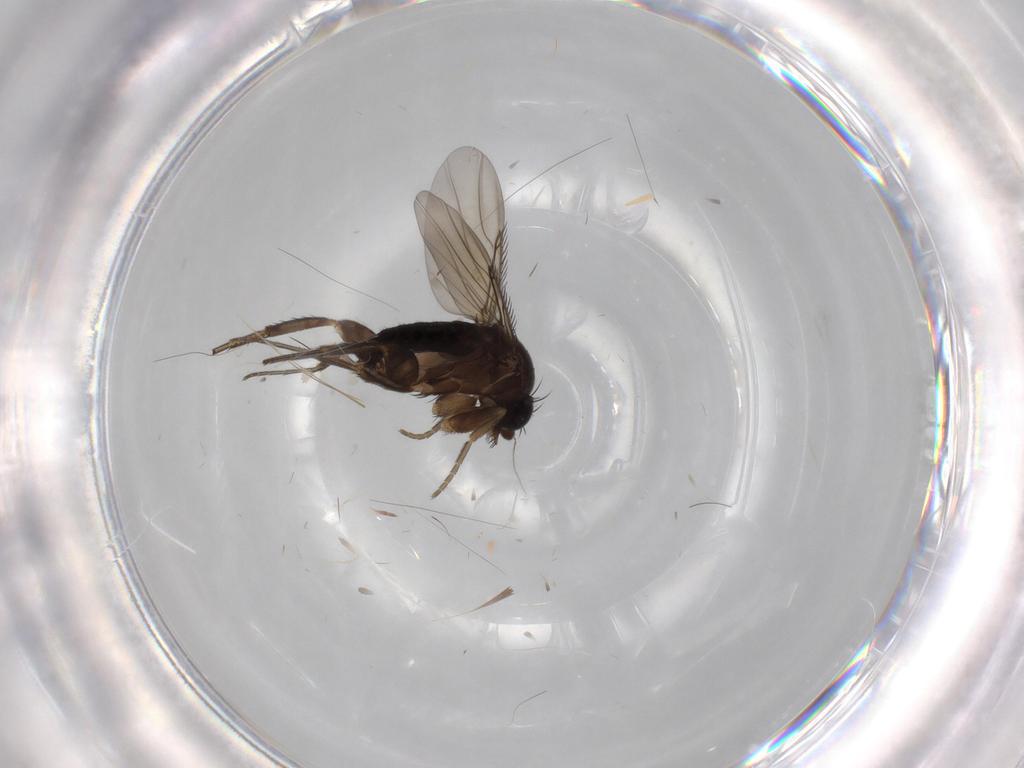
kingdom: Animalia
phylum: Arthropoda
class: Insecta
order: Diptera
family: Phoridae
